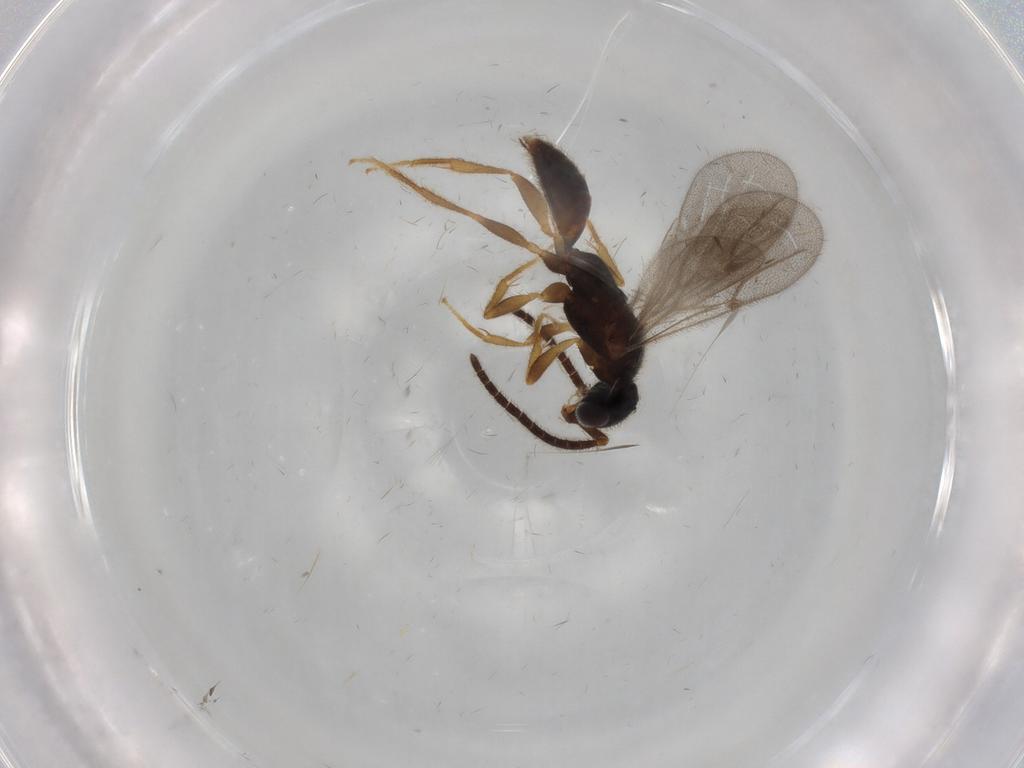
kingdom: Animalia
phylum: Arthropoda
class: Insecta
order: Hymenoptera
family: Bethylidae
